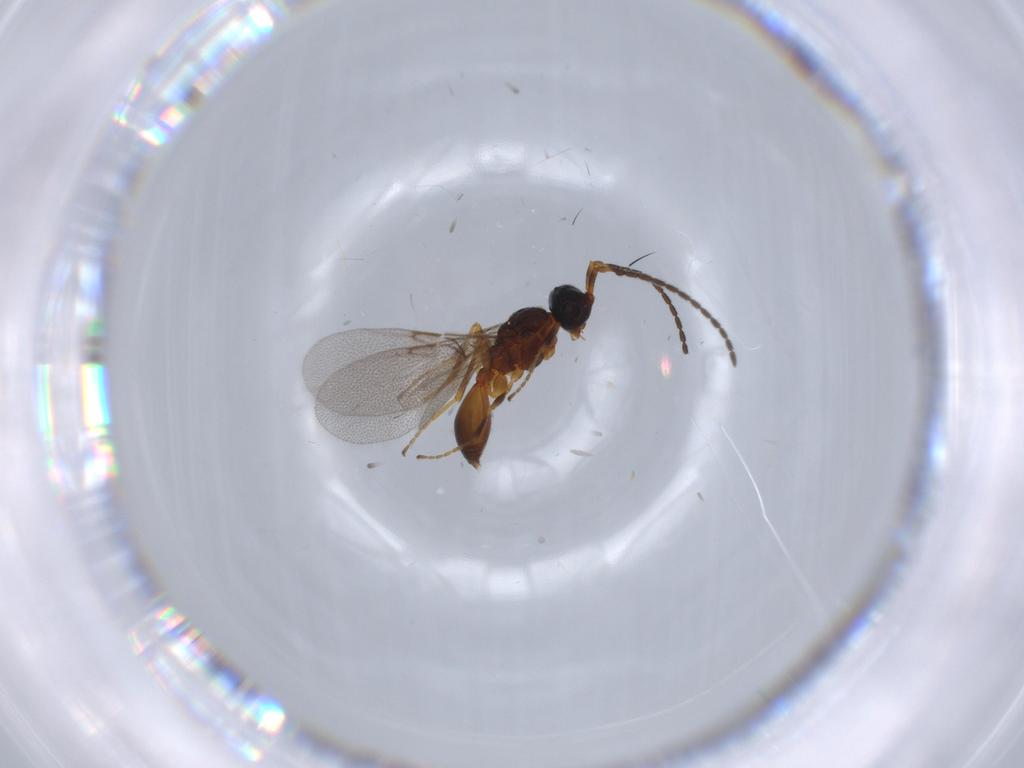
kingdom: Animalia
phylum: Arthropoda
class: Insecta
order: Hymenoptera
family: Diapriidae
